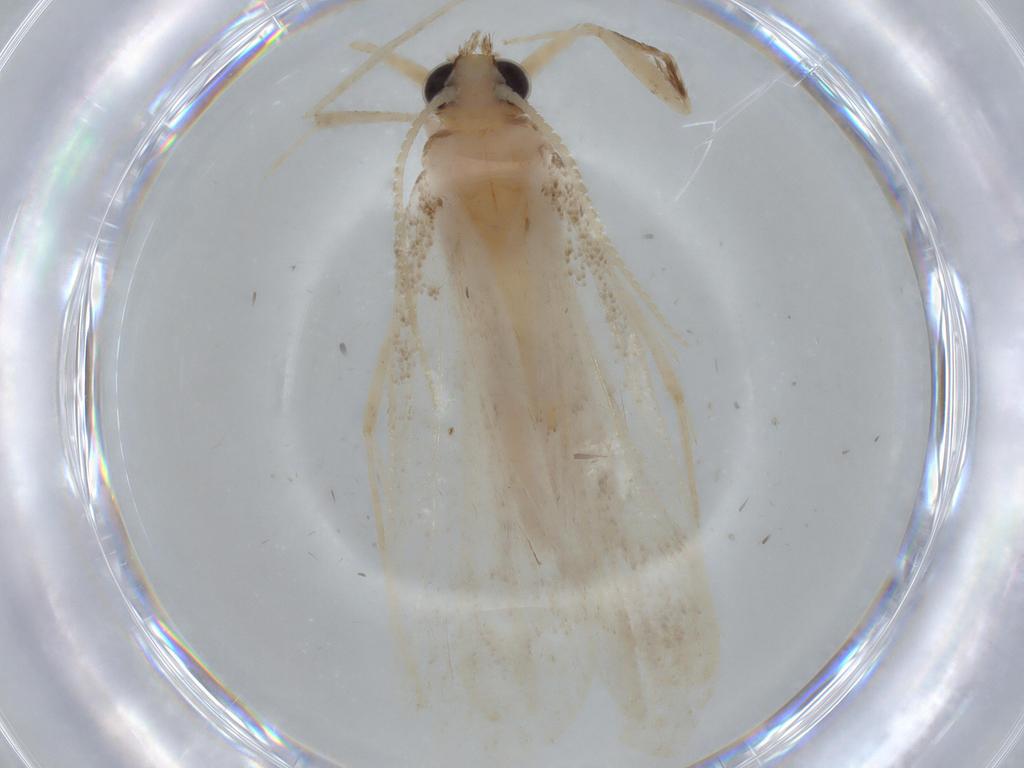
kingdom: Animalia
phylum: Arthropoda
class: Insecta
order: Lepidoptera
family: Crambidae
